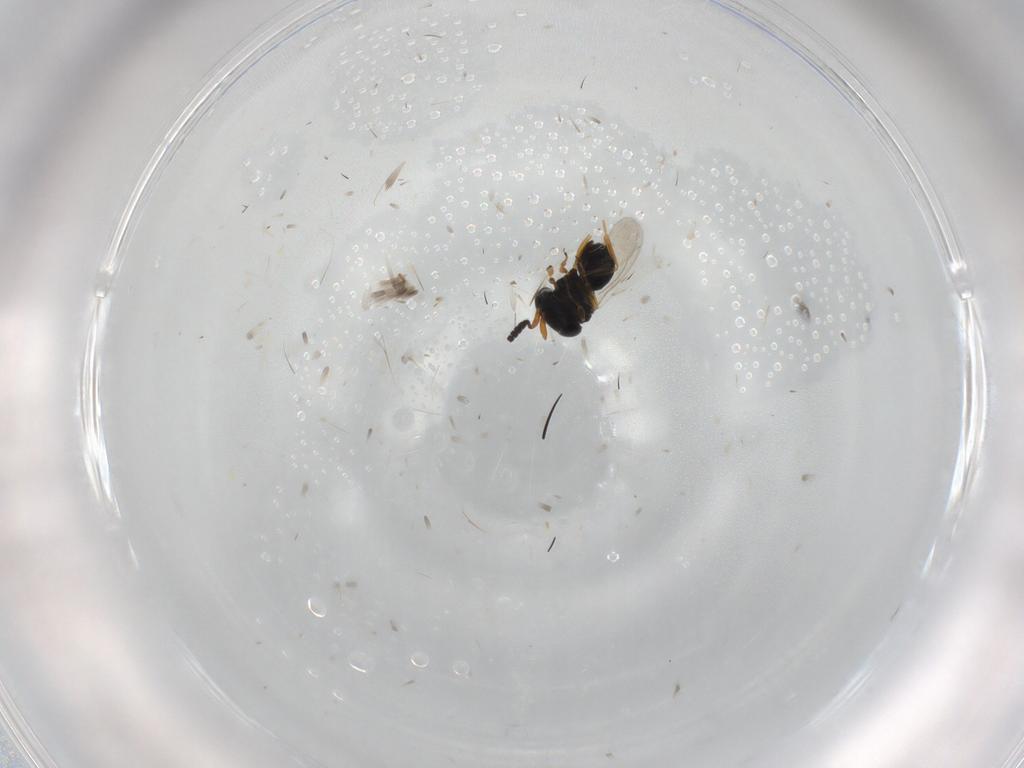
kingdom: Animalia
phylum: Arthropoda
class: Insecta
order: Hymenoptera
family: Scelionidae
